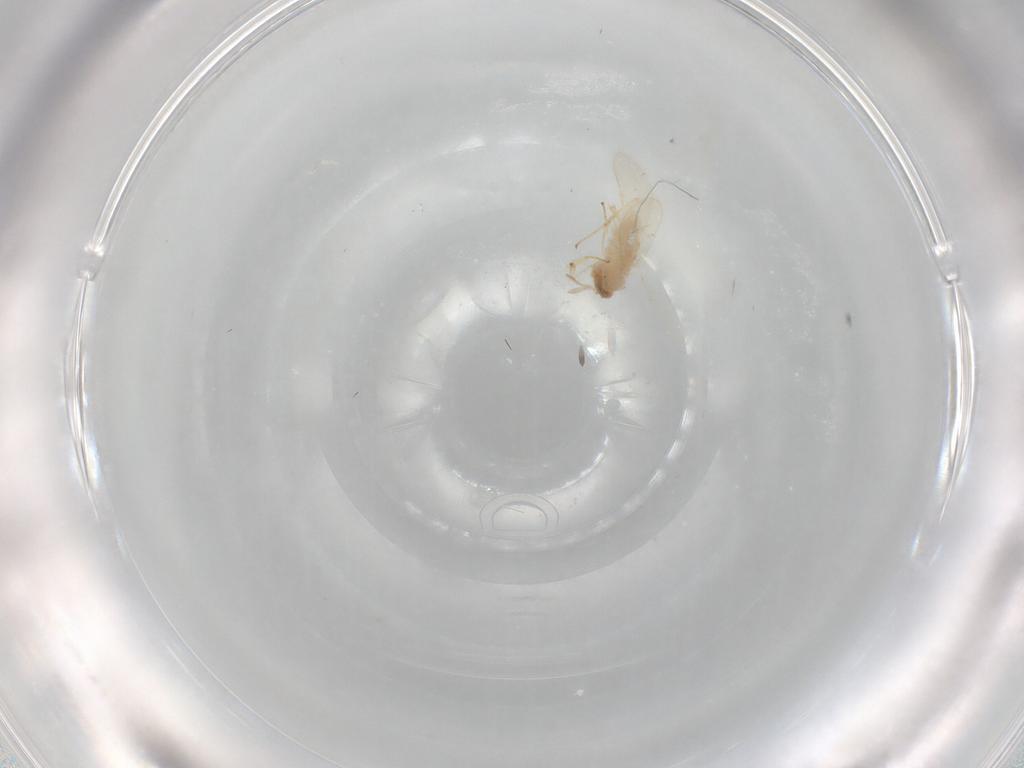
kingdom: Animalia
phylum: Arthropoda
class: Insecta
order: Hymenoptera
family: Aphelinidae
